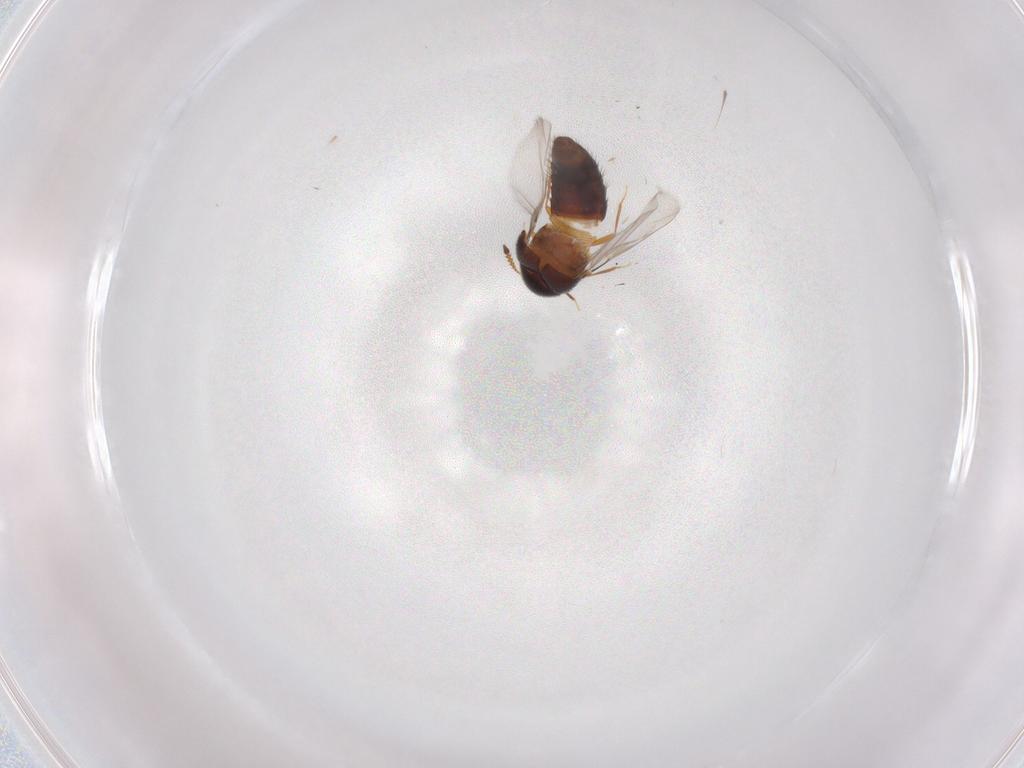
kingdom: Animalia
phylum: Arthropoda
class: Insecta
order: Coleoptera
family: Staphylinidae
